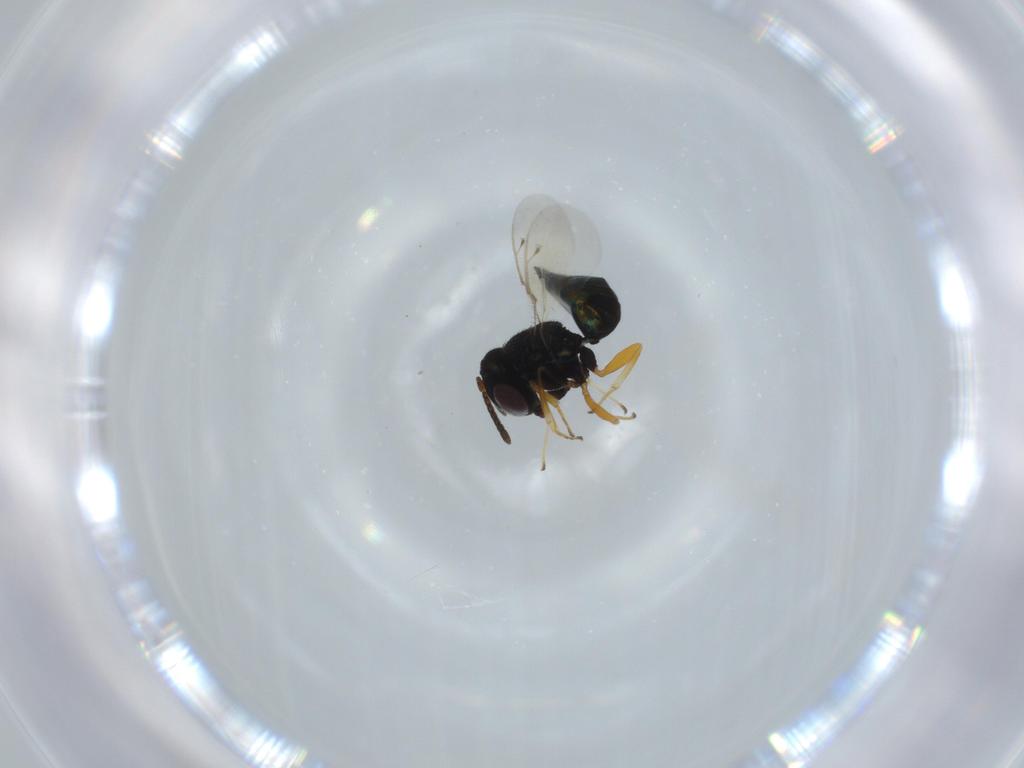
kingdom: Animalia
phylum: Arthropoda
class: Insecta
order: Hymenoptera
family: Pteromalidae
